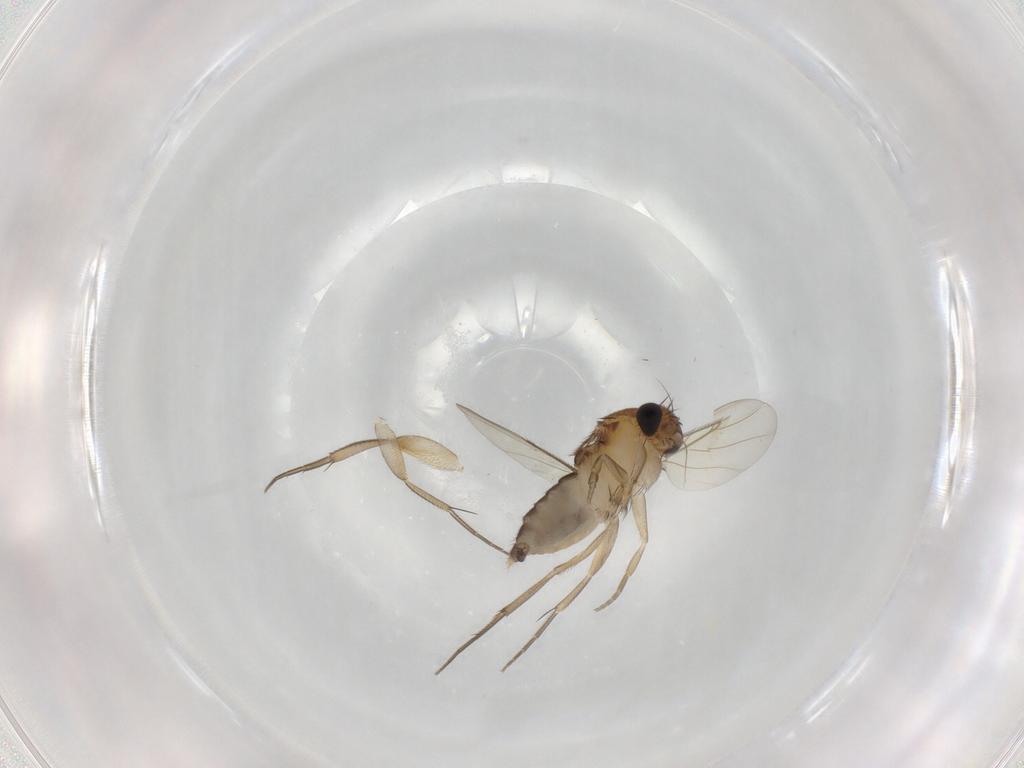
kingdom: Animalia
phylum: Arthropoda
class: Insecta
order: Diptera
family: Phoridae
